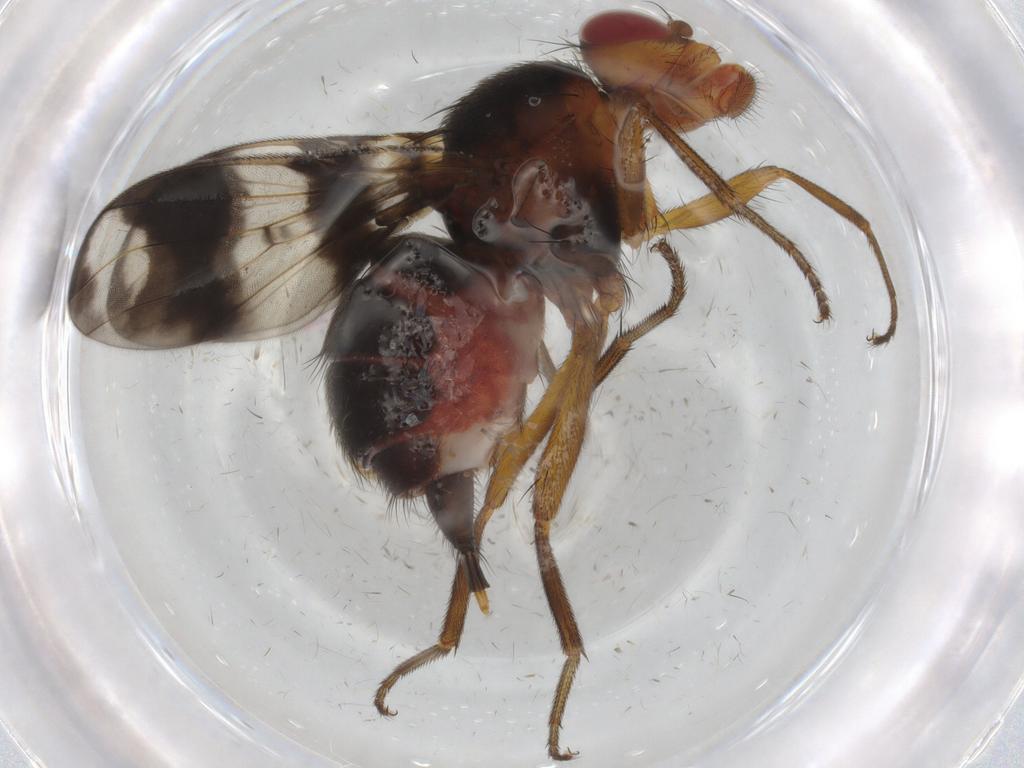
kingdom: Animalia
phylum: Arthropoda
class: Insecta
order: Diptera
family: Richardiidae
